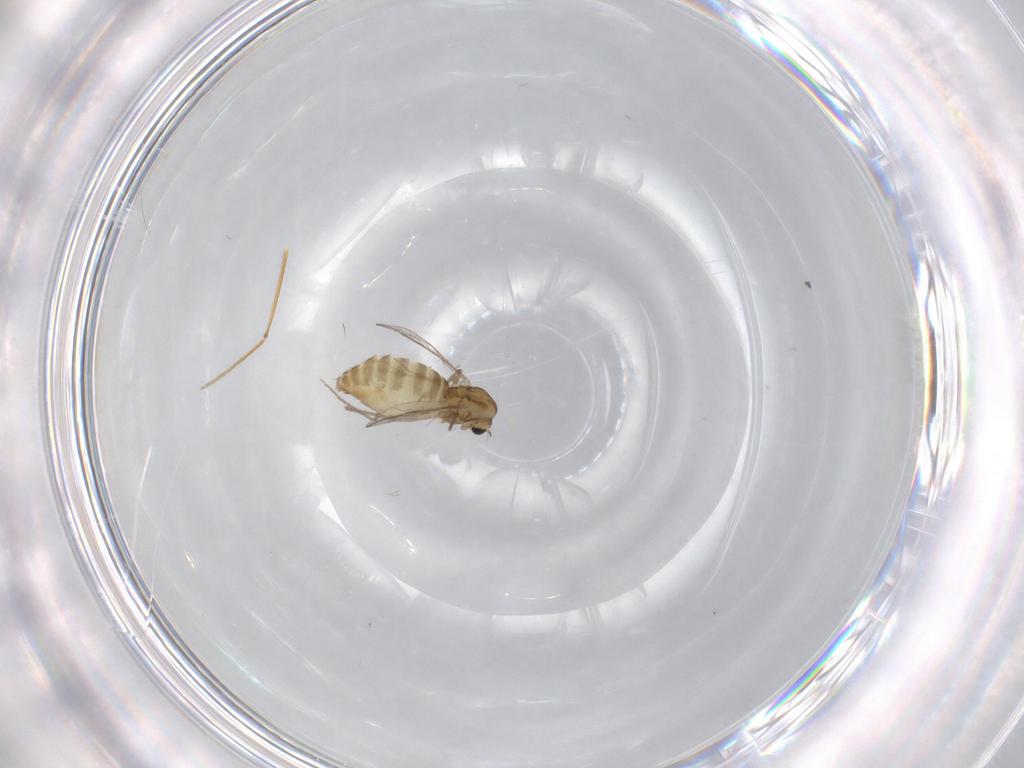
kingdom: Animalia
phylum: Arthropoda
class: Insecta
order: Diptera
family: Chironomidae
